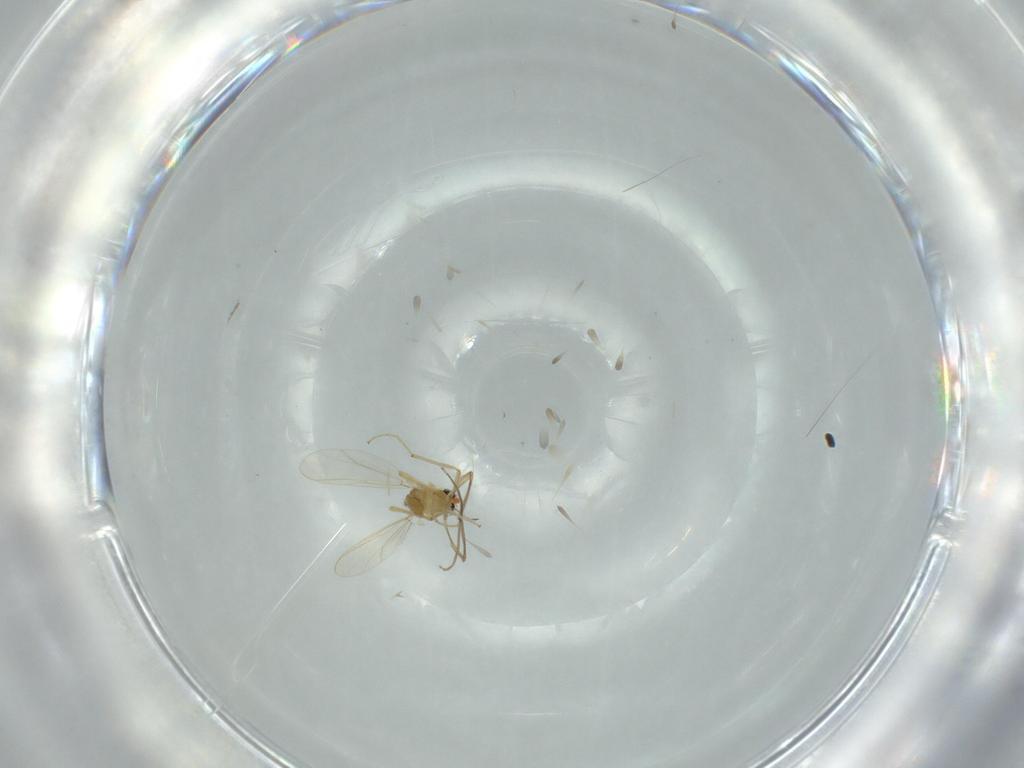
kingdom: Animalia
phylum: Arthropoda
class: Insecta
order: Diptera
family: Chironomidae
